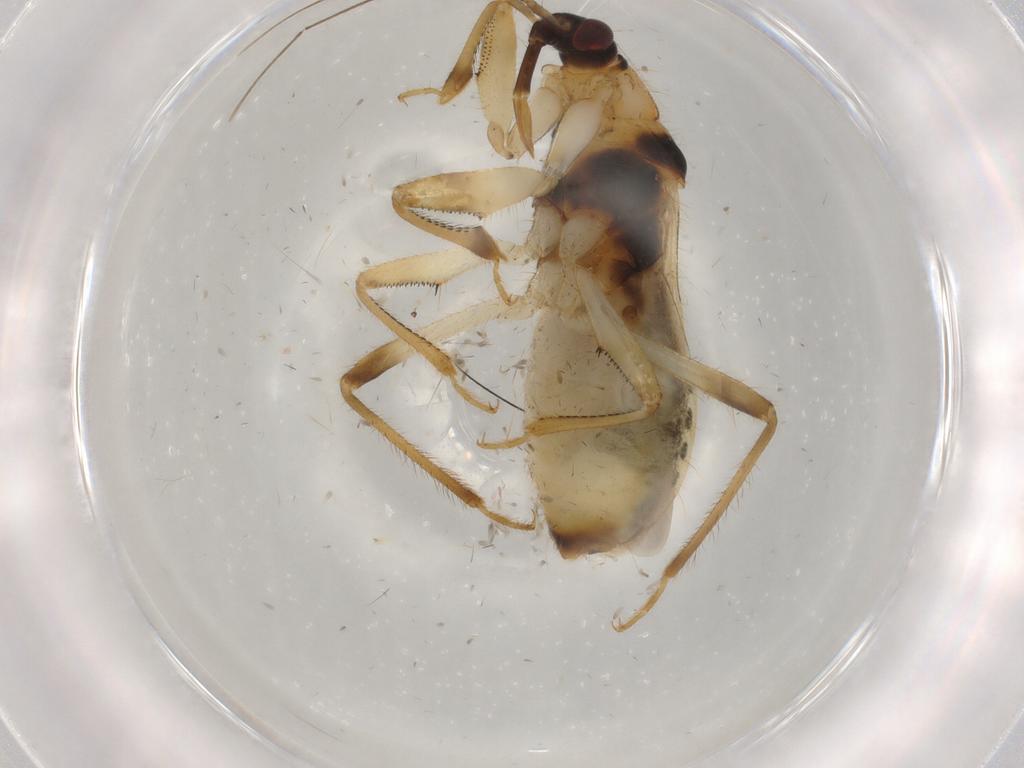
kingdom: Animalia
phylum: Arthropoda
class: Insecta
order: Hemiptera
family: Nabidae
